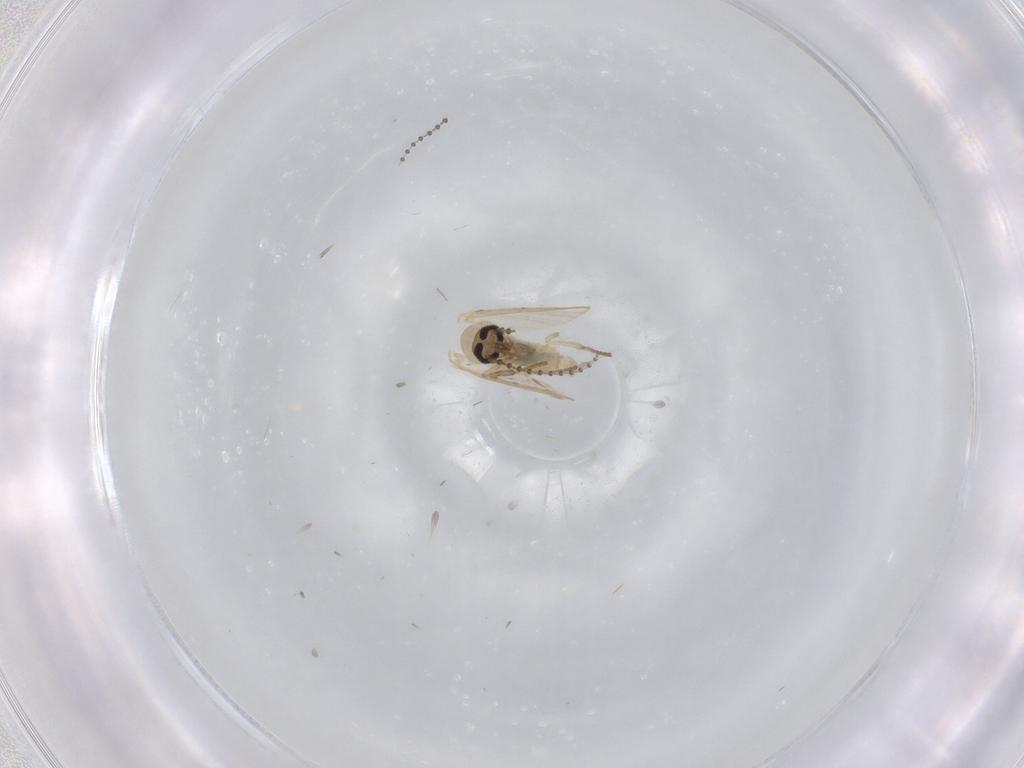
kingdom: Animalia
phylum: Arthropoda
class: Insecta
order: Diptera
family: Psychodidae
